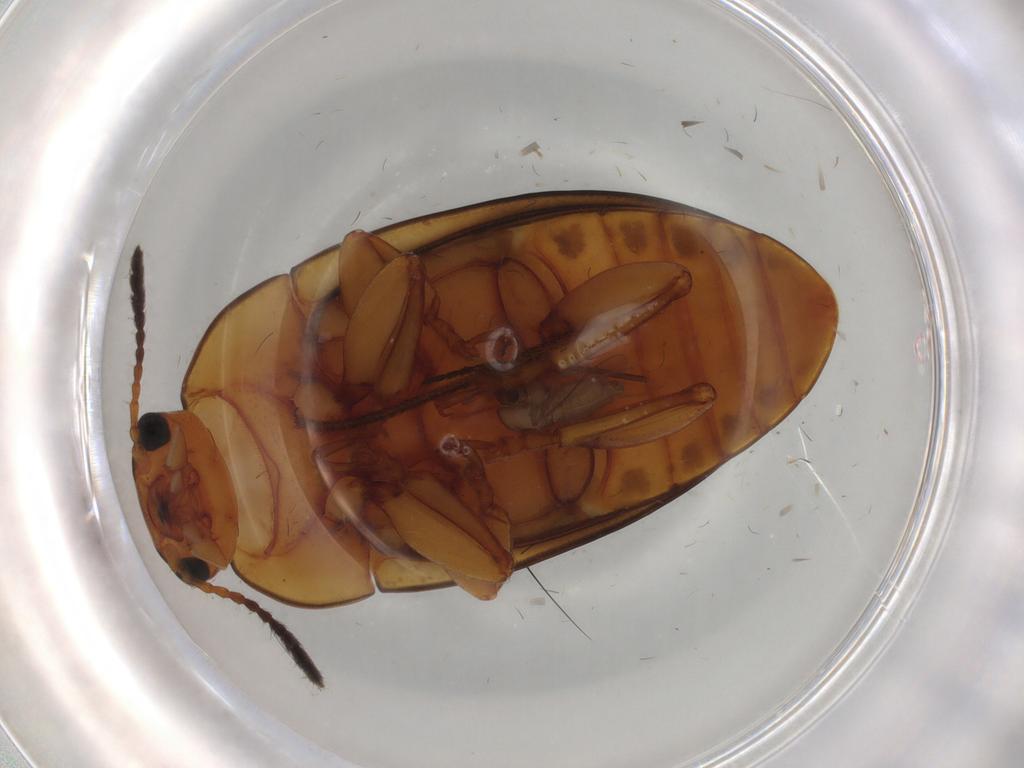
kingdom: Animalia
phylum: Arthropoda
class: Insecta
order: Coleoptera
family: Erotylidae
